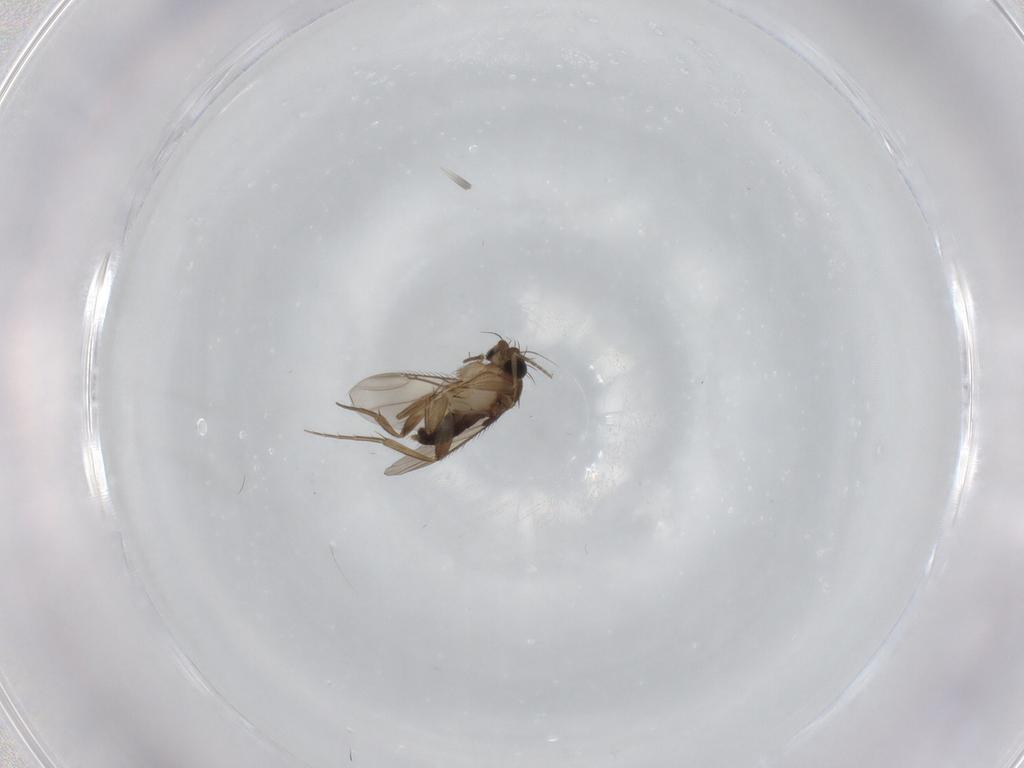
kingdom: Animalia
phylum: Arthropoda
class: Insecta
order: Diptera
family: Phoridae
